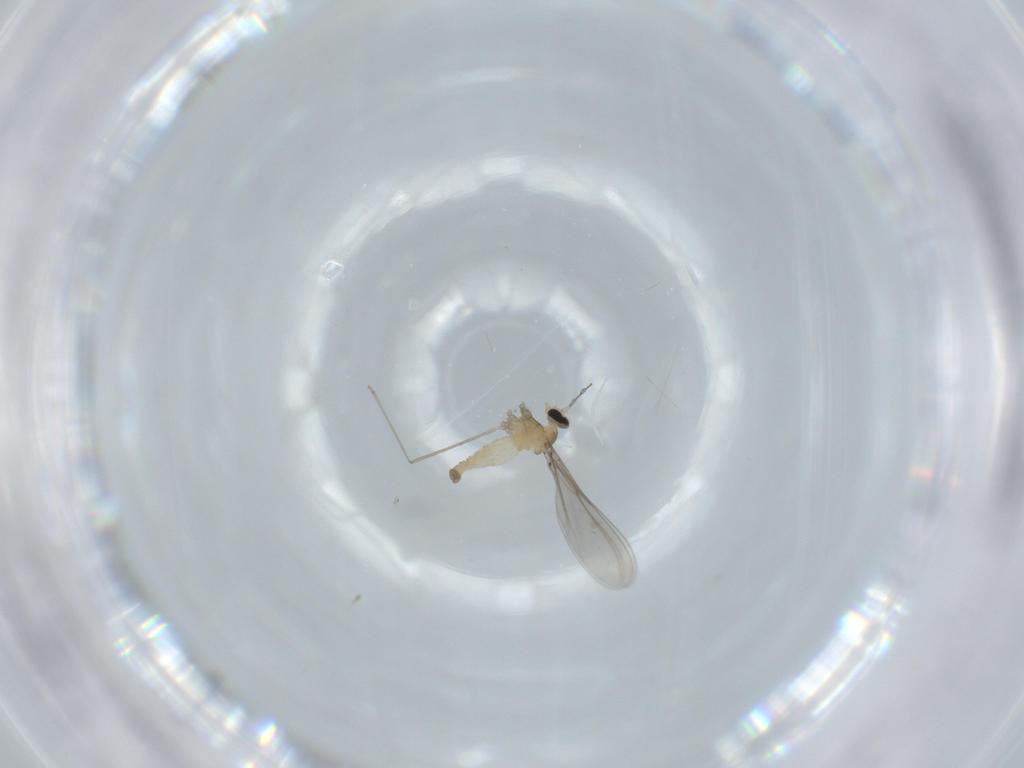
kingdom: Animalia
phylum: Arthropoda
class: Insecta
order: Diptera
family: Cecidomyiidae
